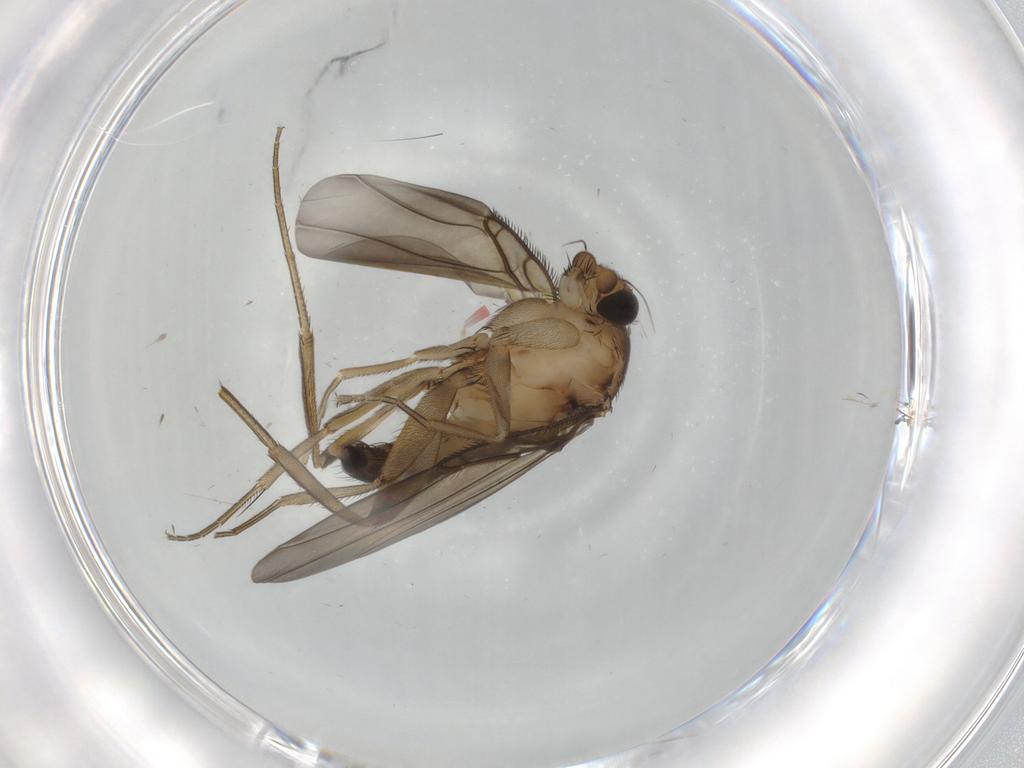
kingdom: Animalia
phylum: Arthropoda
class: Insecta
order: Diptera
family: Phoridae
